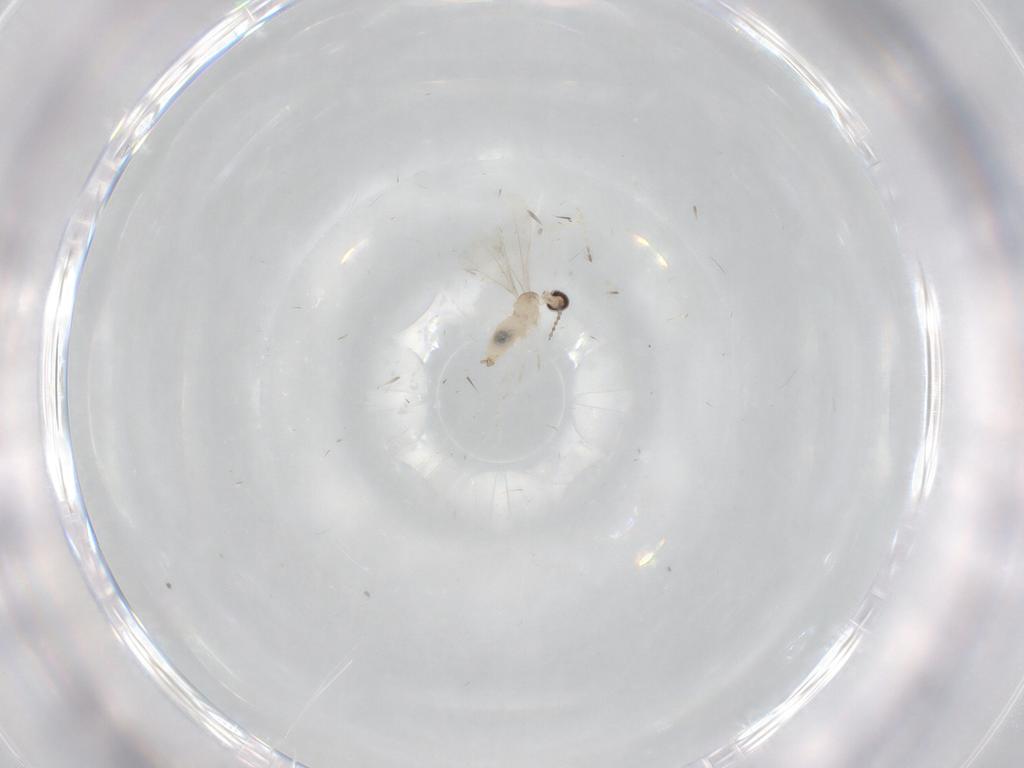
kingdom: Animalia
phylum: Arthropoda
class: Insecta
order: Diptera
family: Cecidomyiidae
